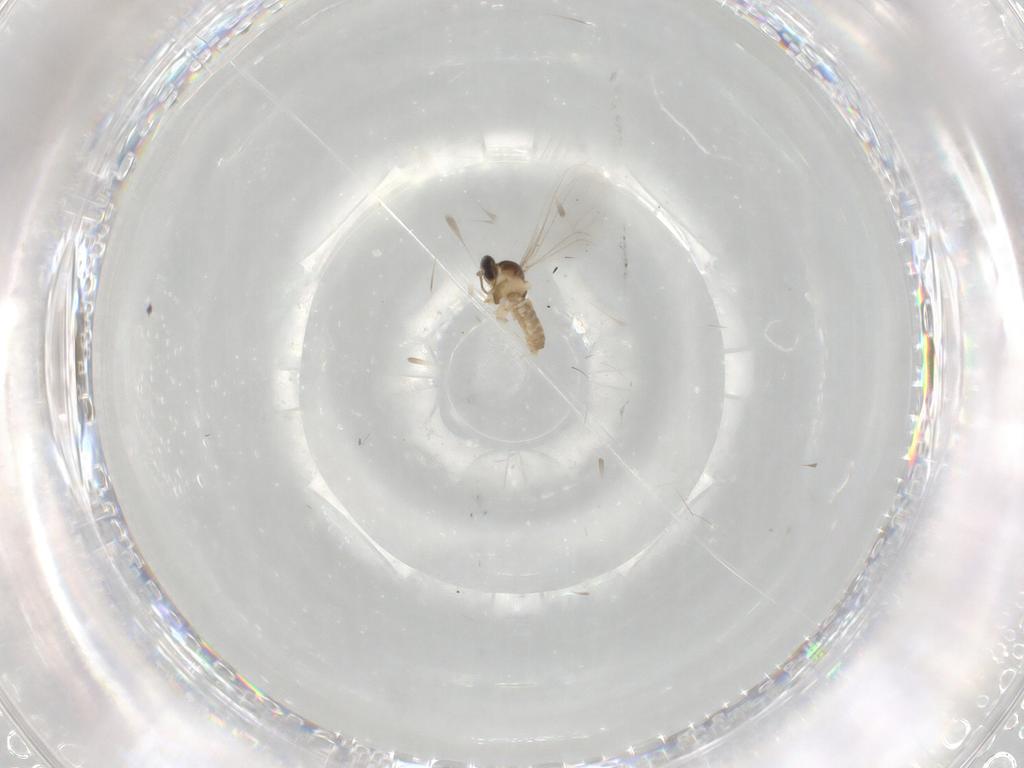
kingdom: Animalia
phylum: Arthropoda
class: Insecta
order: Diptera
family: Cecidomyiidae
